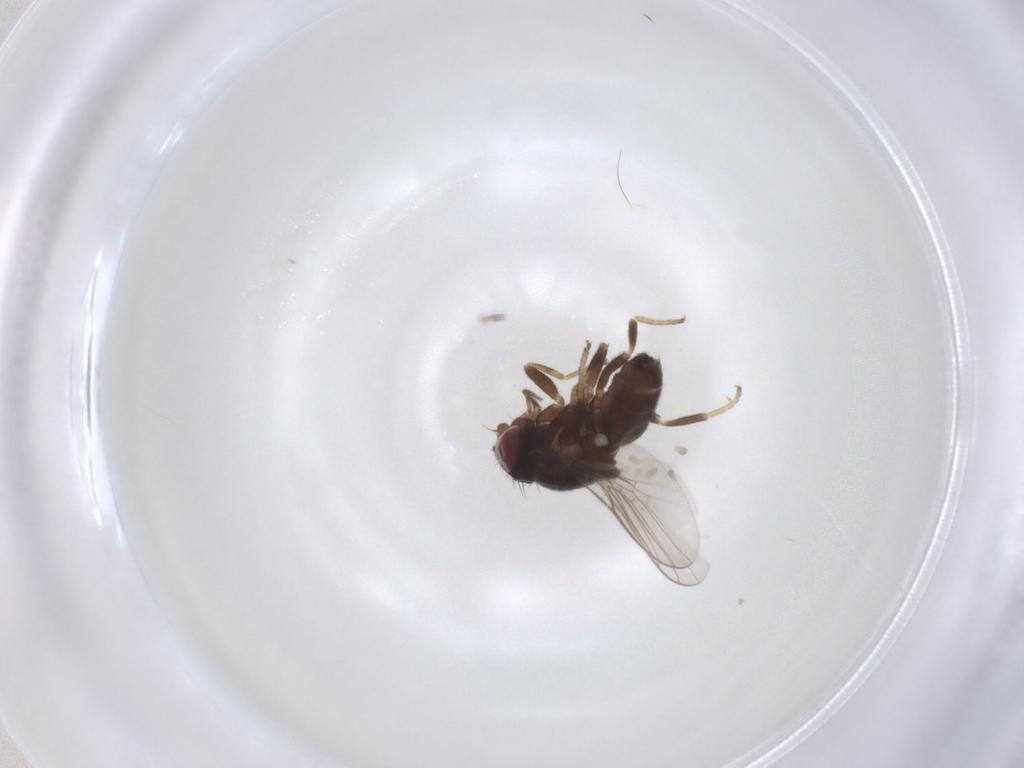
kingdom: Animalia
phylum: Arthropoda
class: Insecta
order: Diptera
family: Chloropidae
